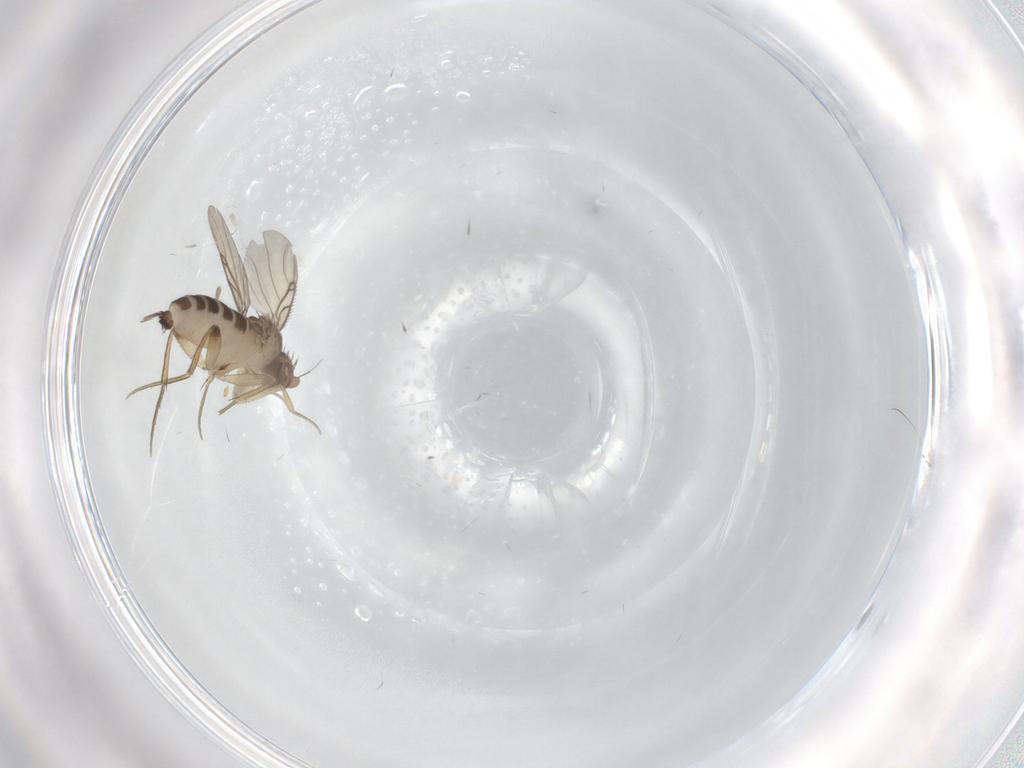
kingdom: Animalia
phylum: Arthropoda
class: Insecta
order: Diptera
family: Phoridae
